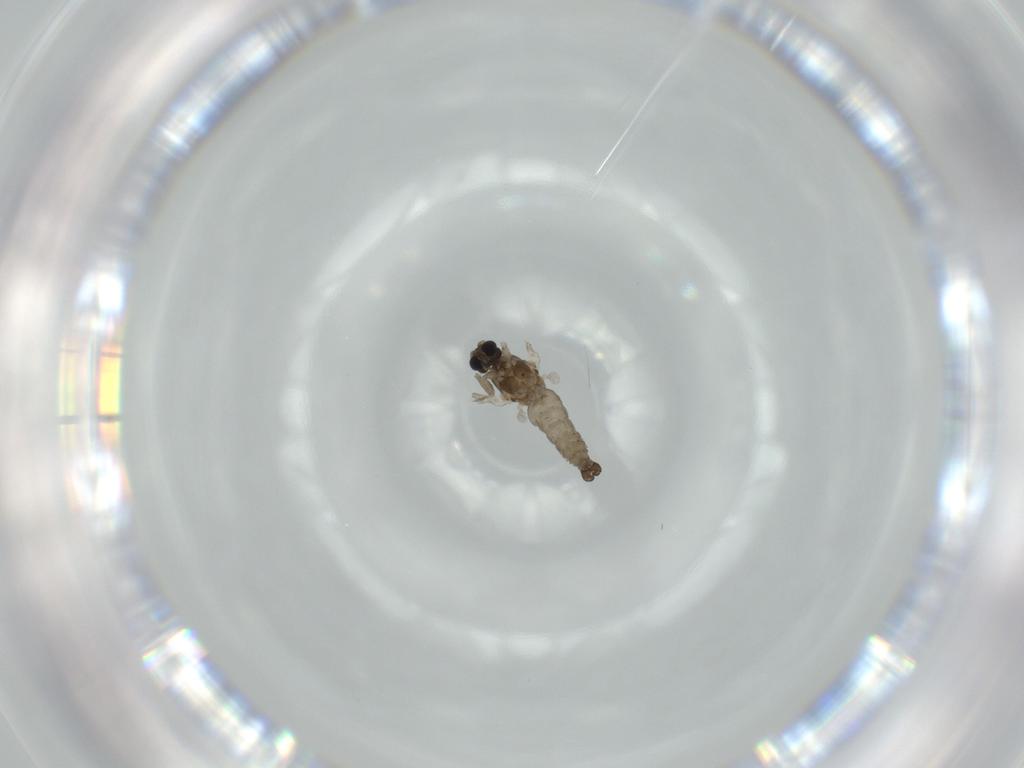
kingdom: Animalia
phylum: Arthropoda
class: Insecta
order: Diptera
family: Cecidomyiidae
